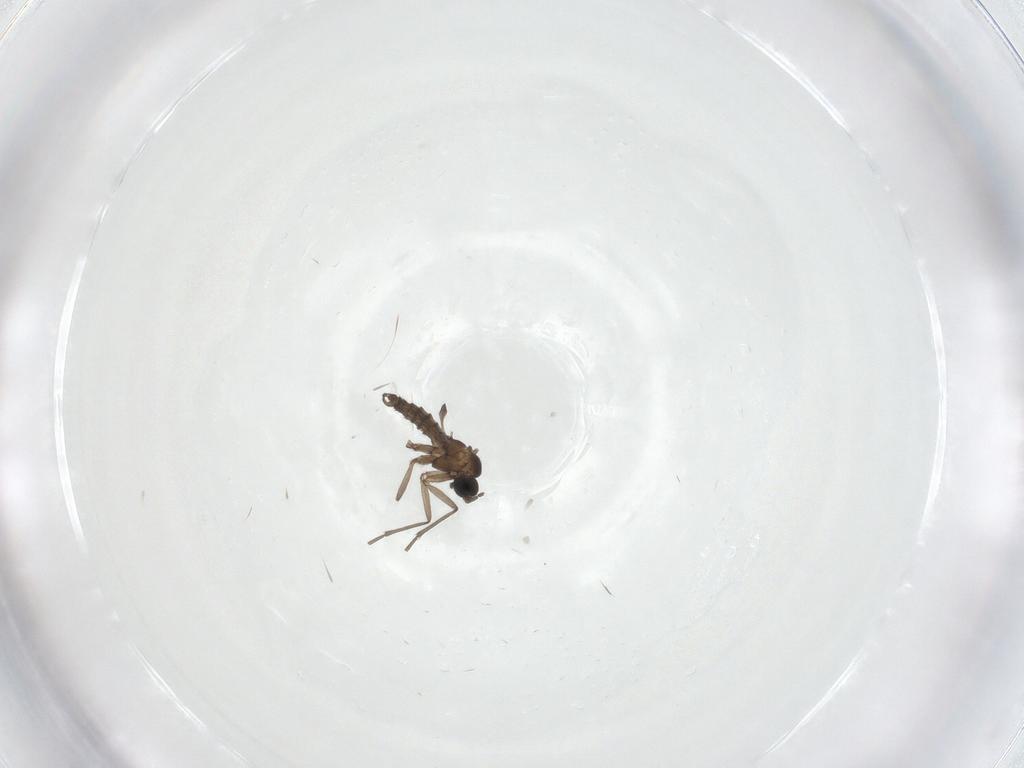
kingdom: Animalia
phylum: Arthropoda
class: Insecta
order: Diptera
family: Sciaridae
